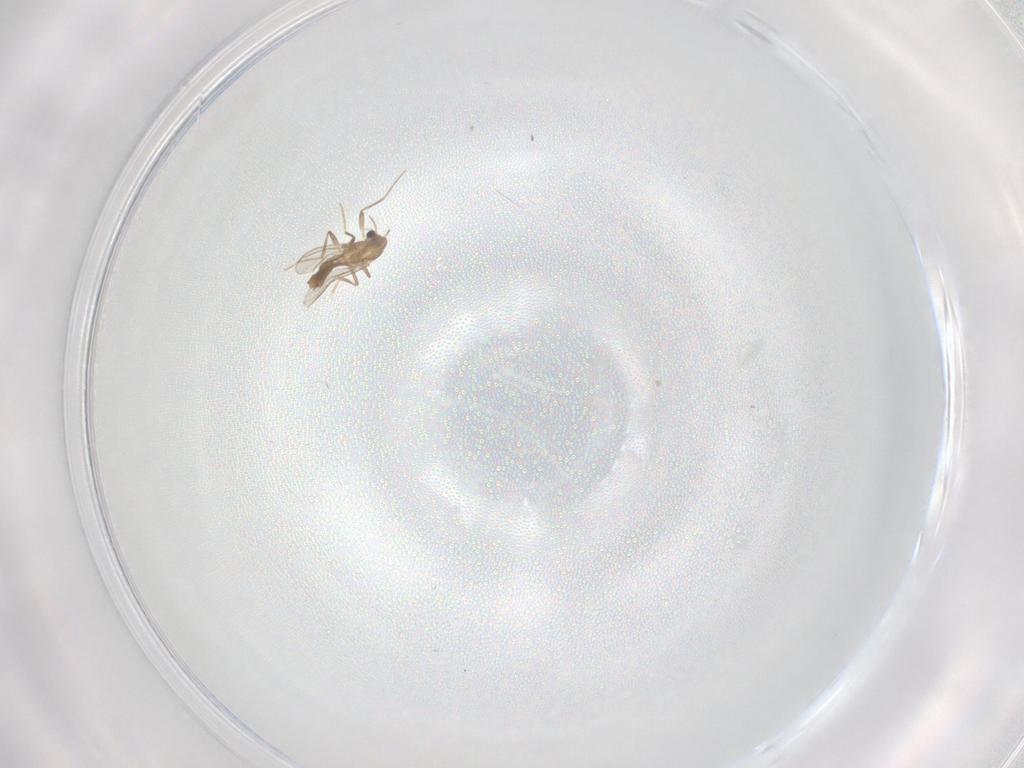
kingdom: Animalia
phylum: Arthropoda
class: Insecta
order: Diptera
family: Chironomidae
